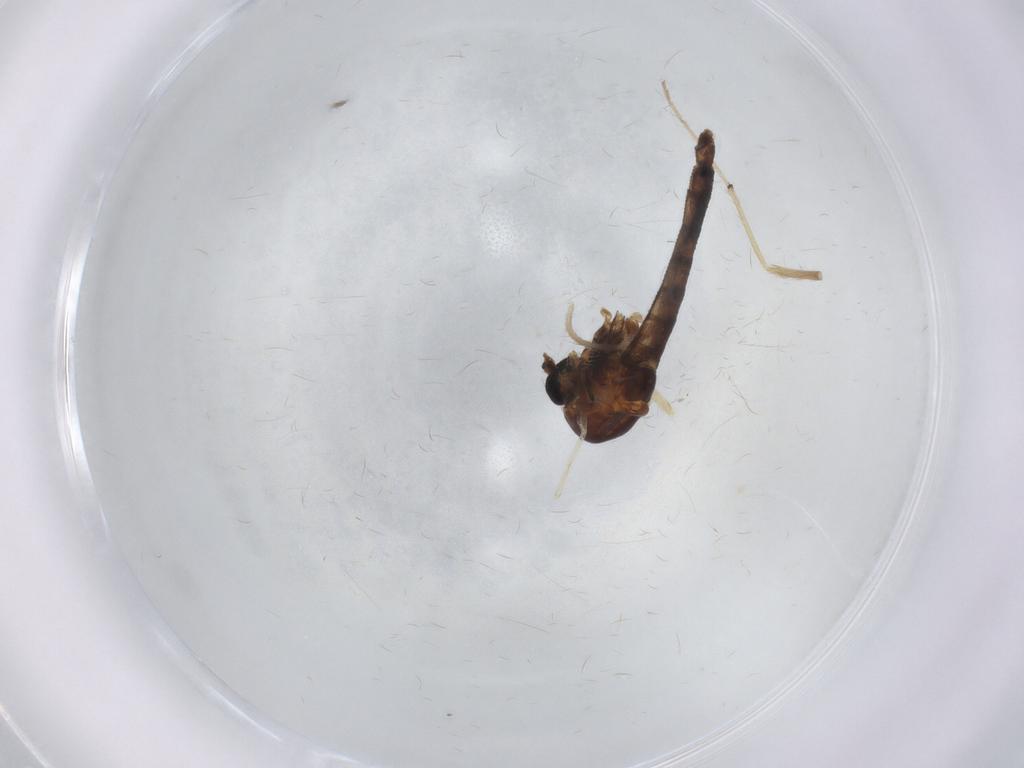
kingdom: Animalia
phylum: Arthropoda
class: Insecta
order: Diptera
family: Chironomidae
